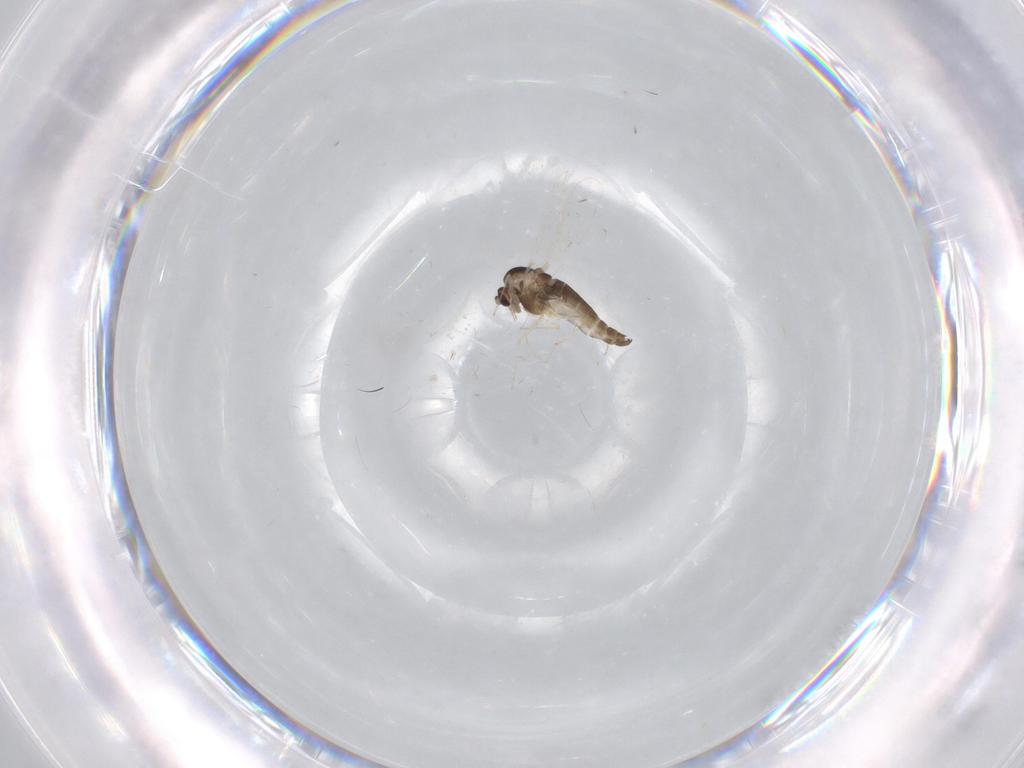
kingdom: Animalia
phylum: Arthropoda
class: Insecta
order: Diptera
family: Chironomidae
